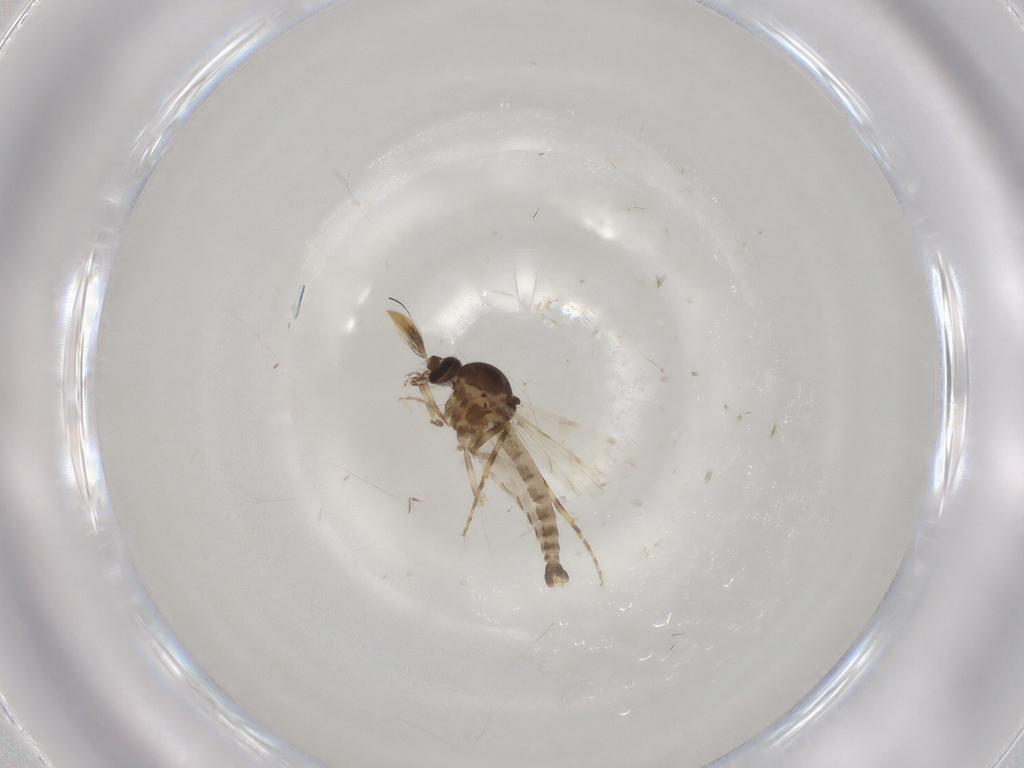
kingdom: Animalia
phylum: Arthropoda
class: Insecta
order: Diptera
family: Ceratopogonidae
